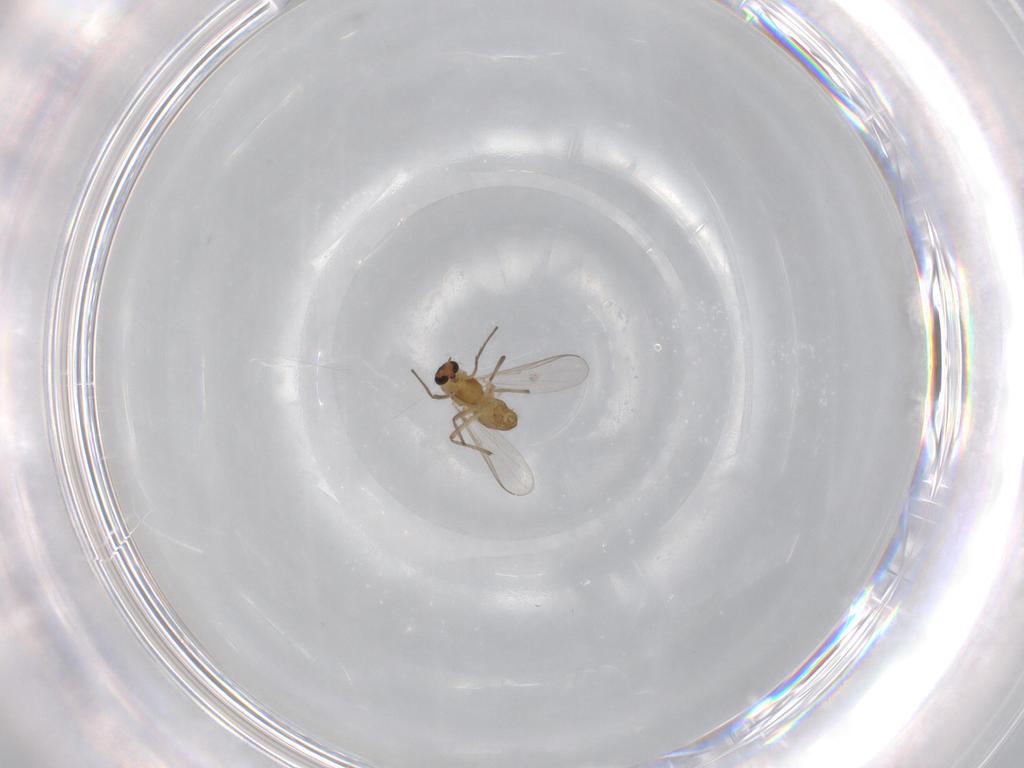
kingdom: Animalia
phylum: Arthropoda
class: Insecta
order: Diptera
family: Chironomidae
